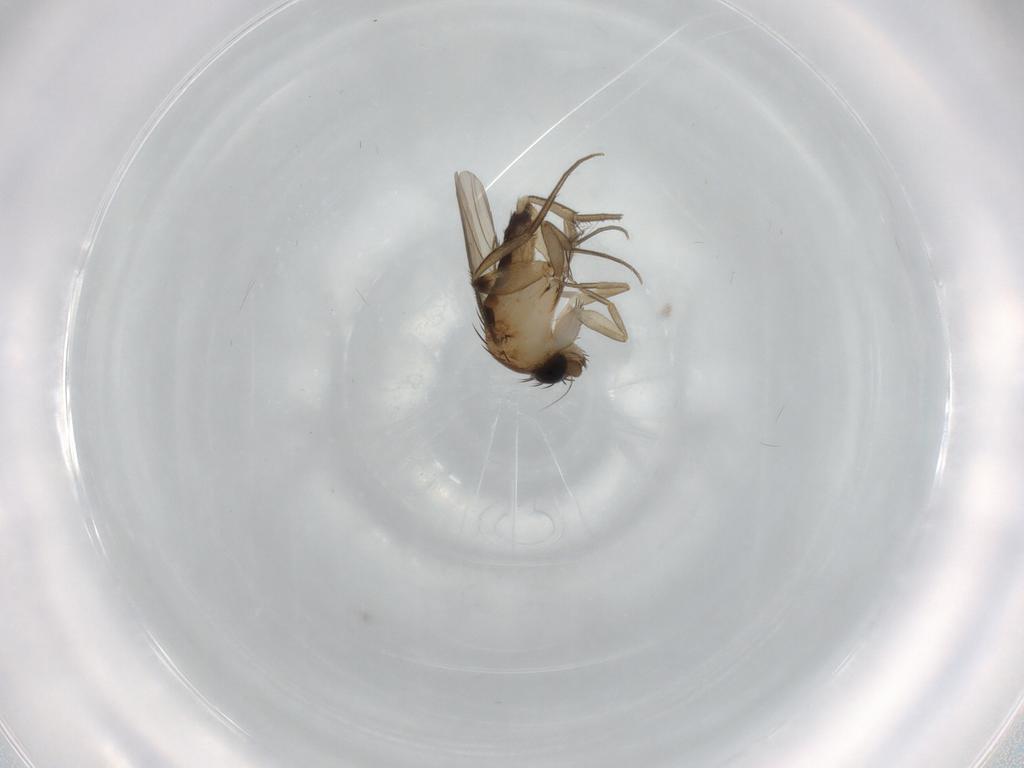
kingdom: Animalia
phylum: Arthropoda
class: Insecta
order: Diptera
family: Phoridae
